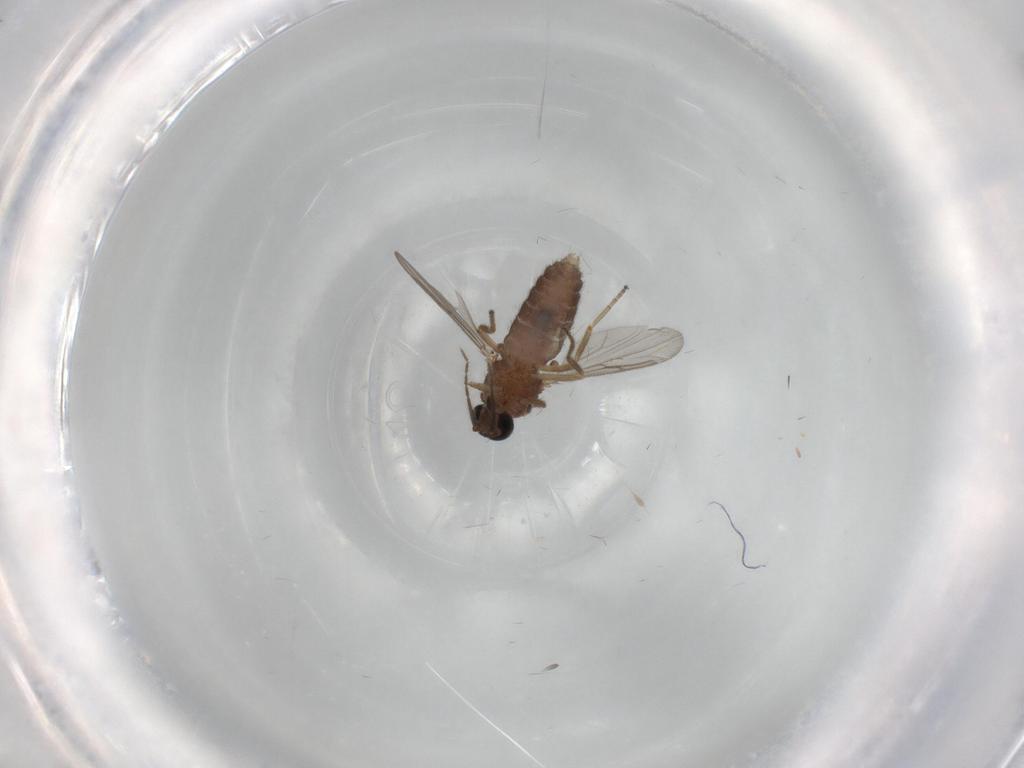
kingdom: Animalia
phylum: Arthropoda
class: Insecta
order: Diptera
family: Ceratopogonidae
